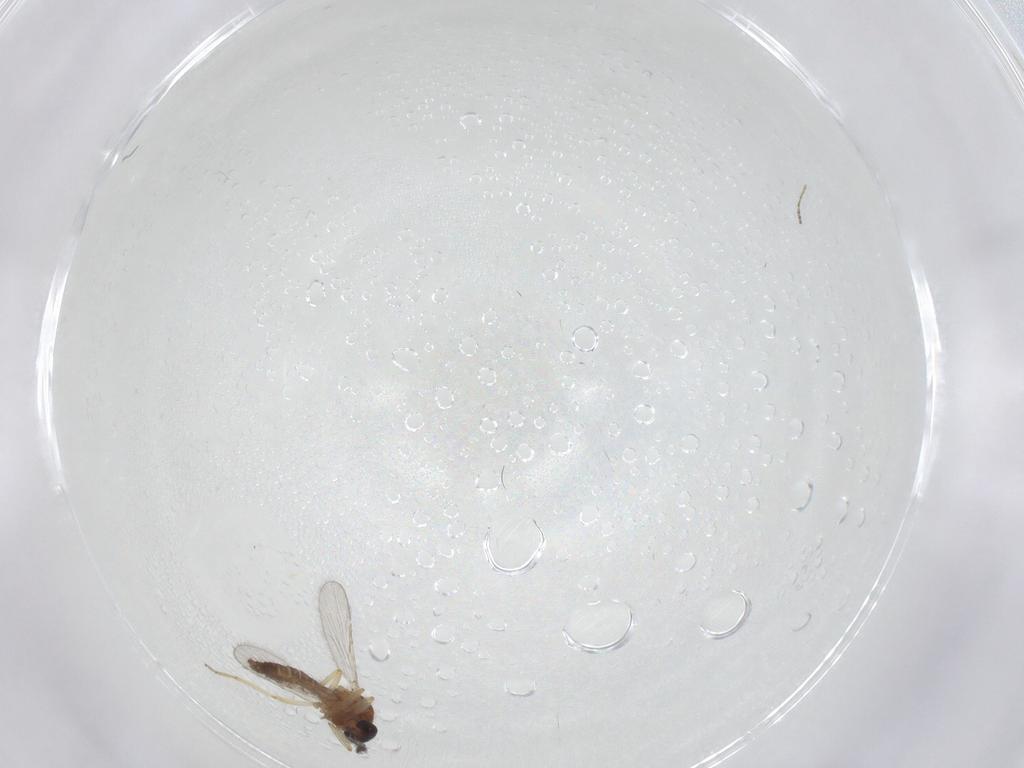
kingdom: Animalia
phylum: Arthropoda
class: Insecta
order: Diptera
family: Ceratopogonidae
